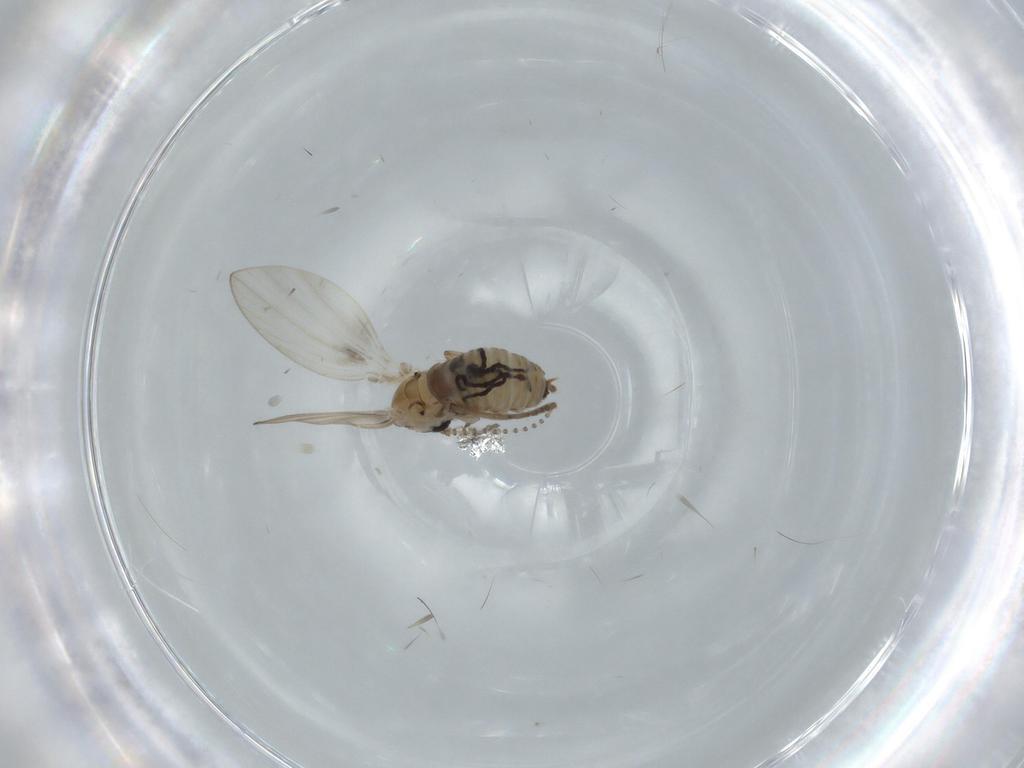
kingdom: Animalia
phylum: Arthropoda
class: Insecta
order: Diptera
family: Psychodidae
